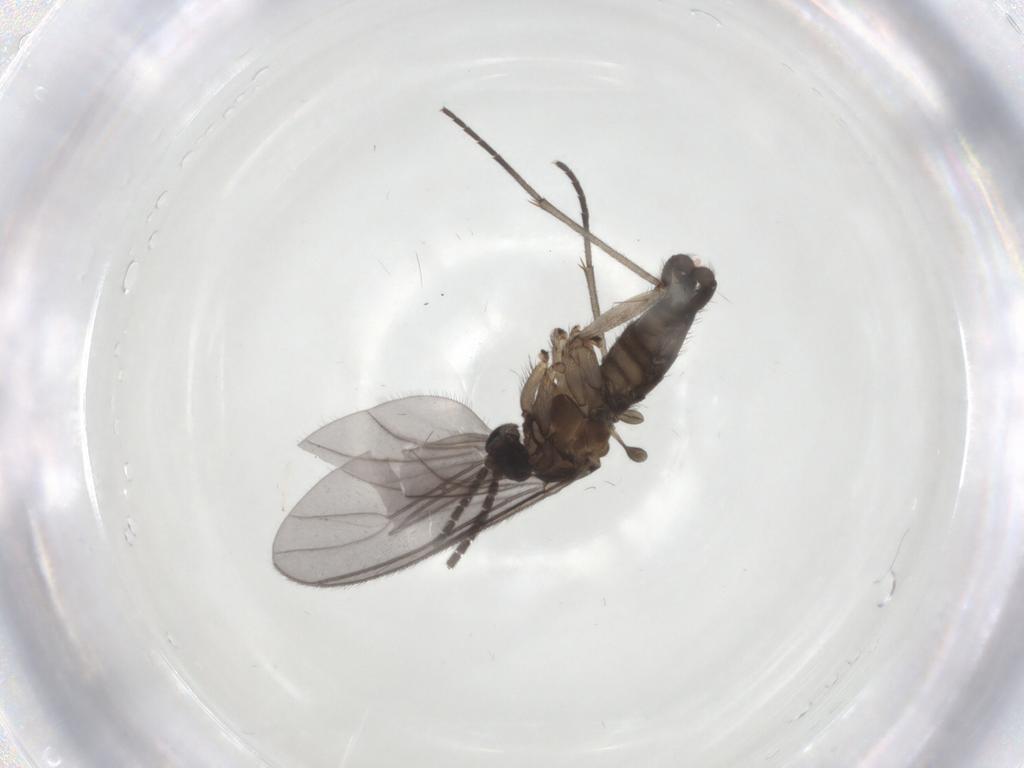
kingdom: Animalia
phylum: Arthropoda
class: Insecta
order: Diptera
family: Sciaridae
